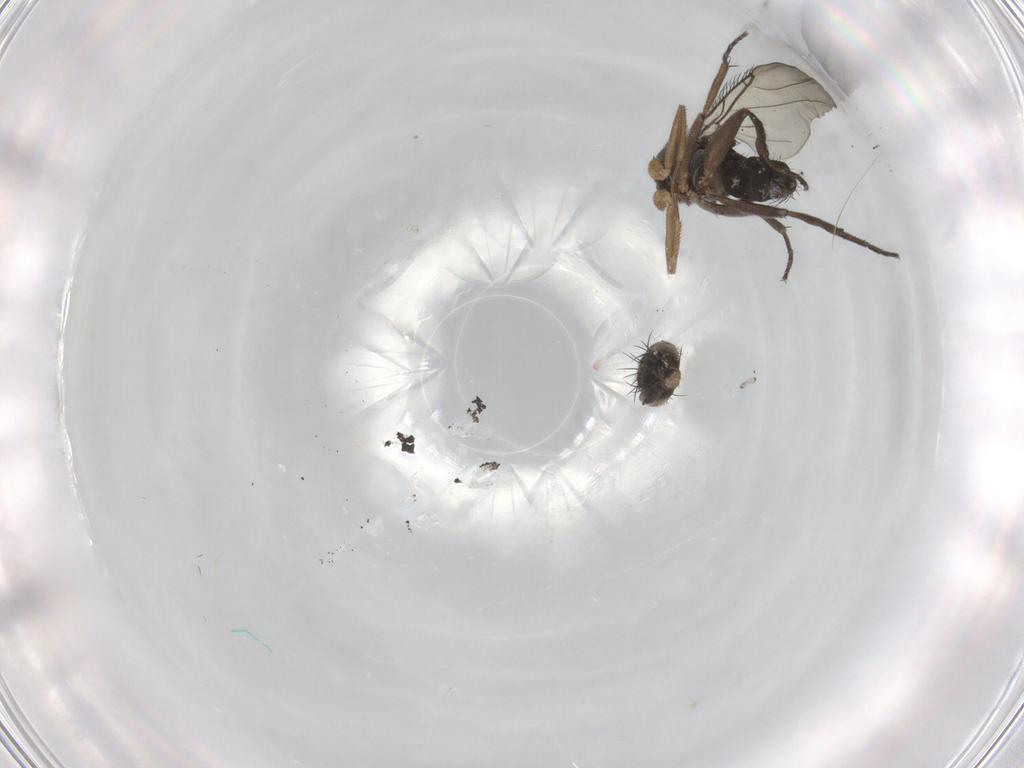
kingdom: Animalia
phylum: Arthropoda
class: Insecta
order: Diptera
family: Phoridae
